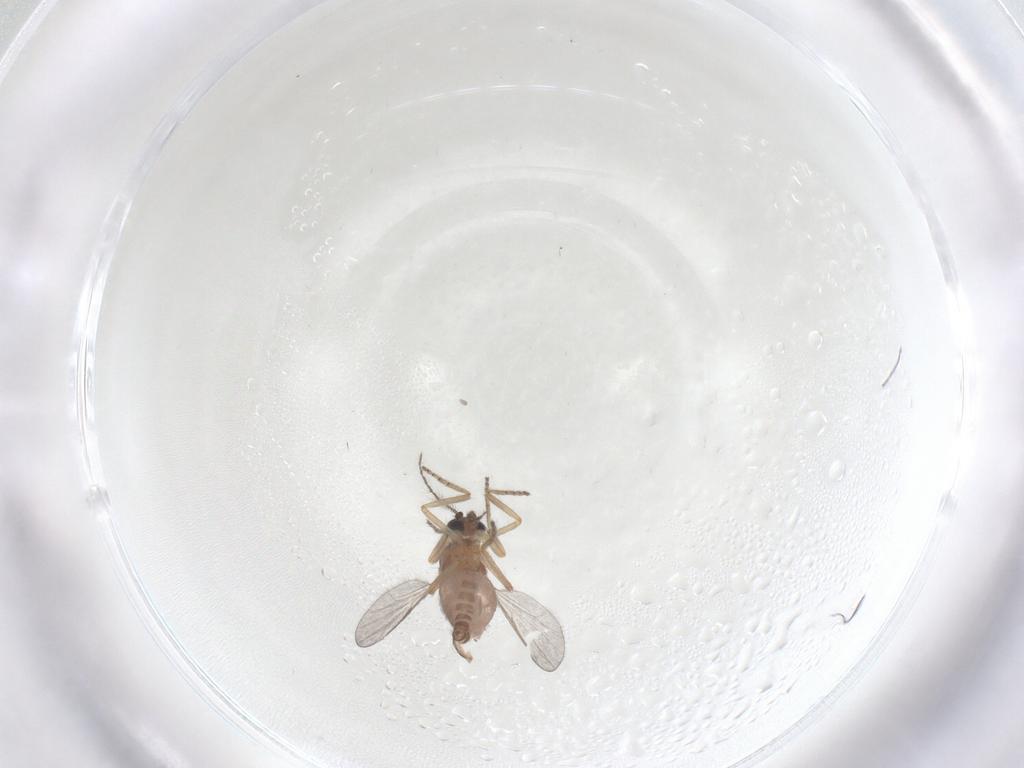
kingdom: Animalia
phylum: Arthropoda
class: Insecta
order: Diptera
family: Ceratopogonidae
